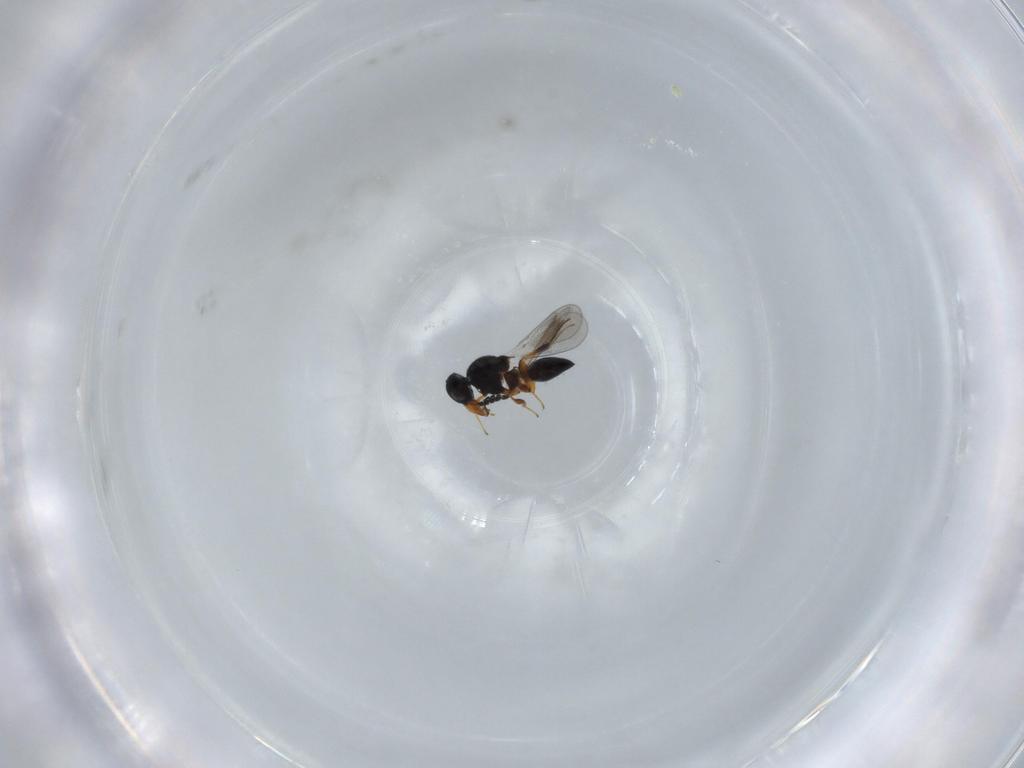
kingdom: Animalia
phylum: Arthropoda
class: Insecta
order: Hymenoptera
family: Platygastridae
